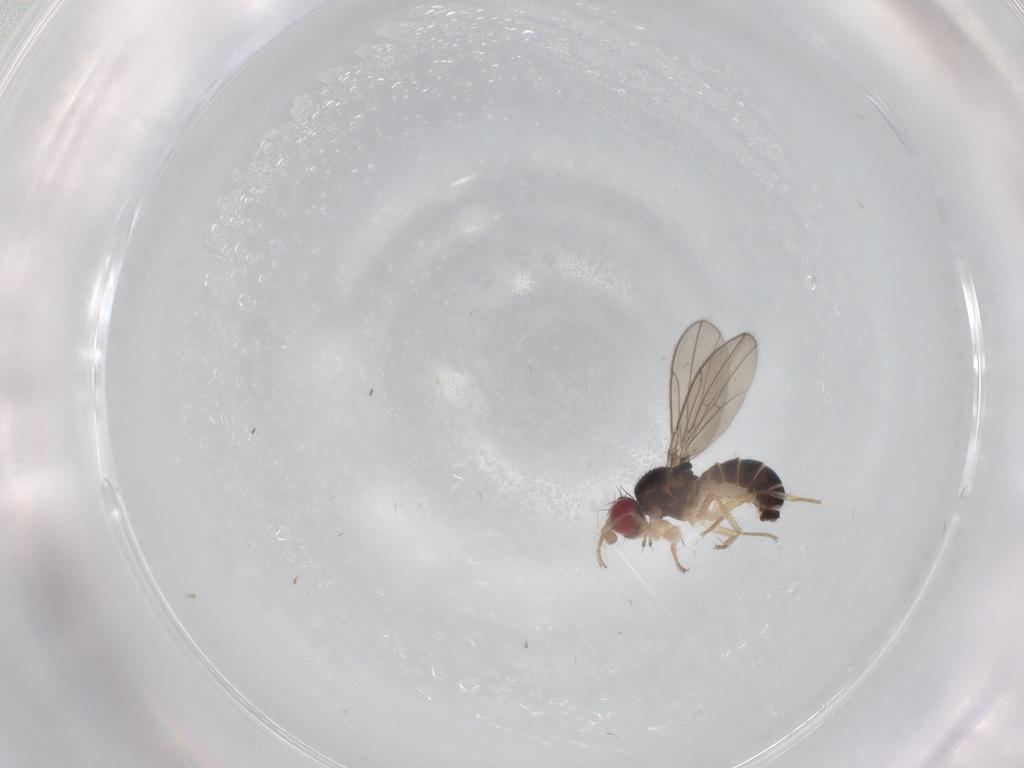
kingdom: Animalia
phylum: Arthropoda
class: Insecta
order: Diptera
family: Drosophilidae
